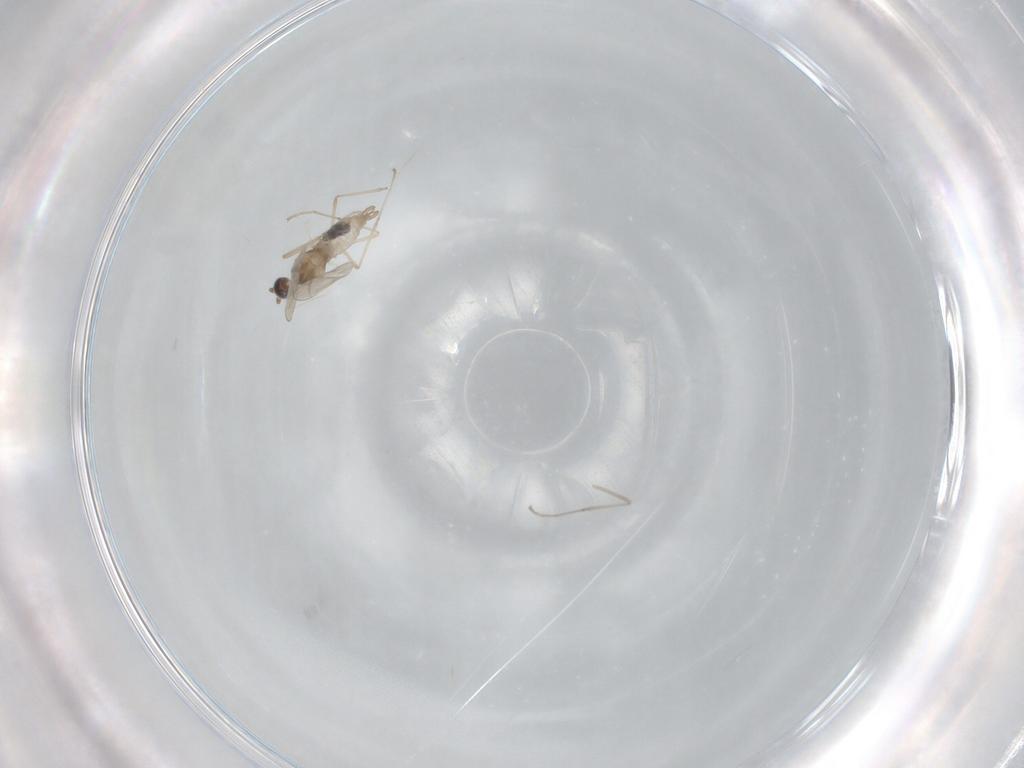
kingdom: Animalia
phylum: Arthropoda
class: Insecta
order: Diptera
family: Chironomidae
